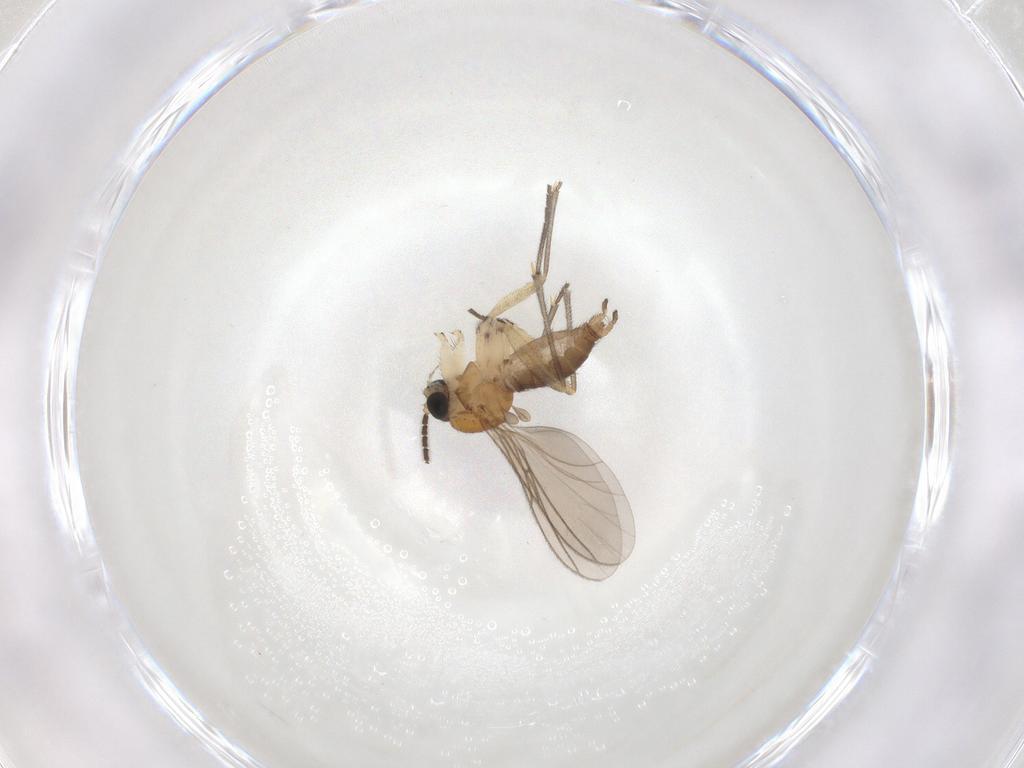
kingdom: Animalia
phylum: Arthropoda
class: Insecta
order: Diptera
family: Sciaridae
